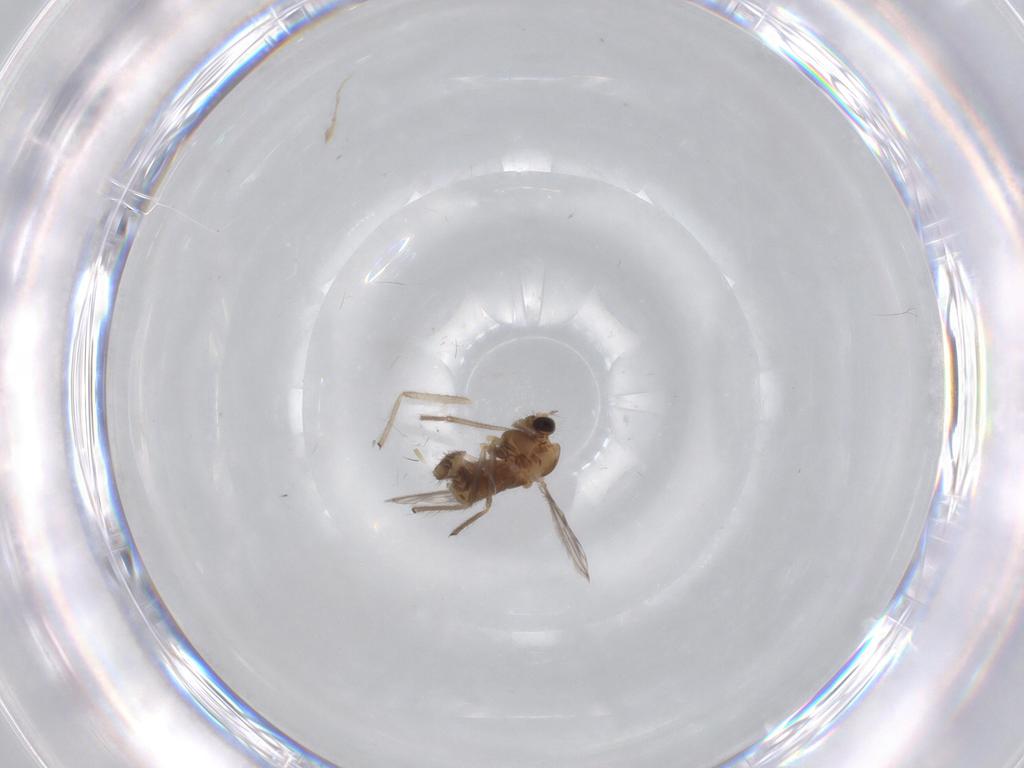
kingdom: Animalia
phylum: Arthropoda
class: Insecta
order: Diptera
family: Chironomidae
